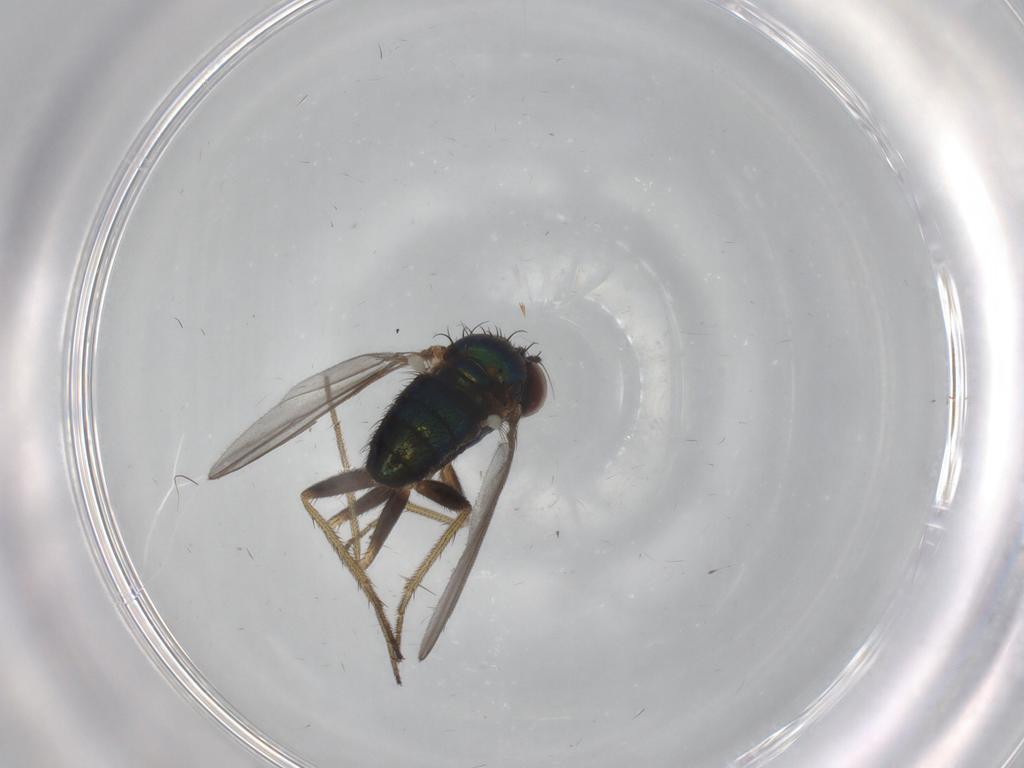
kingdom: Animalia
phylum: Arthropoda
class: Insecta
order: Diptera
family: Dolichopodidae
